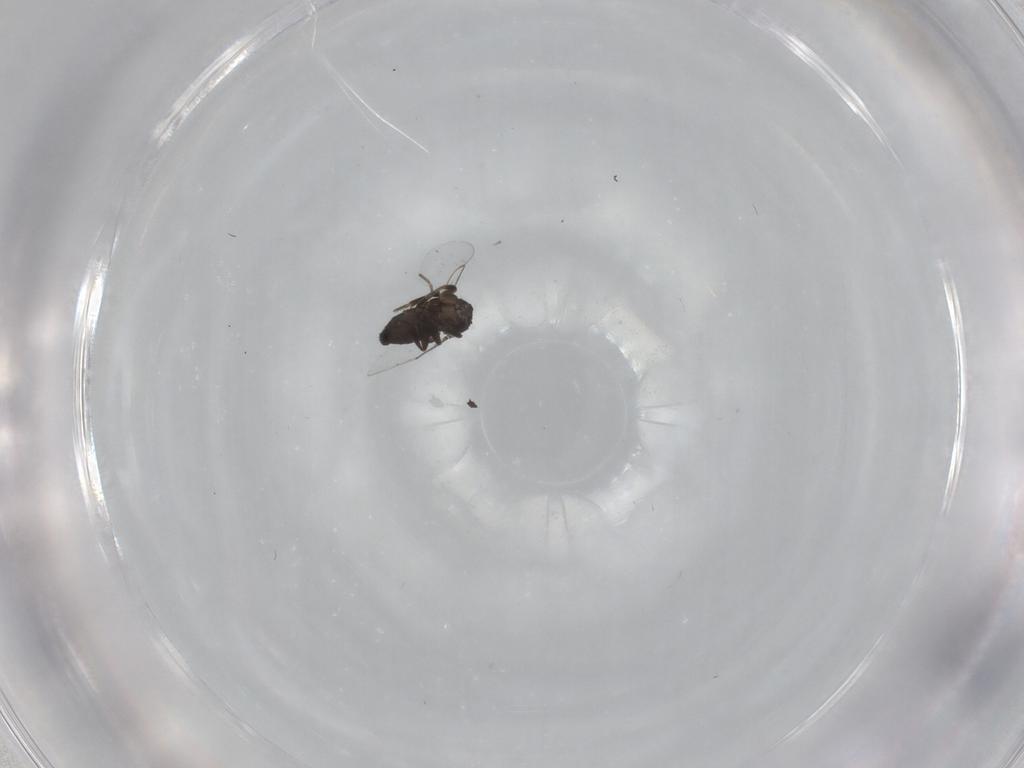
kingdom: Animalia
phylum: Arthropoda
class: Insecta
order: Diptera
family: Phoridae
